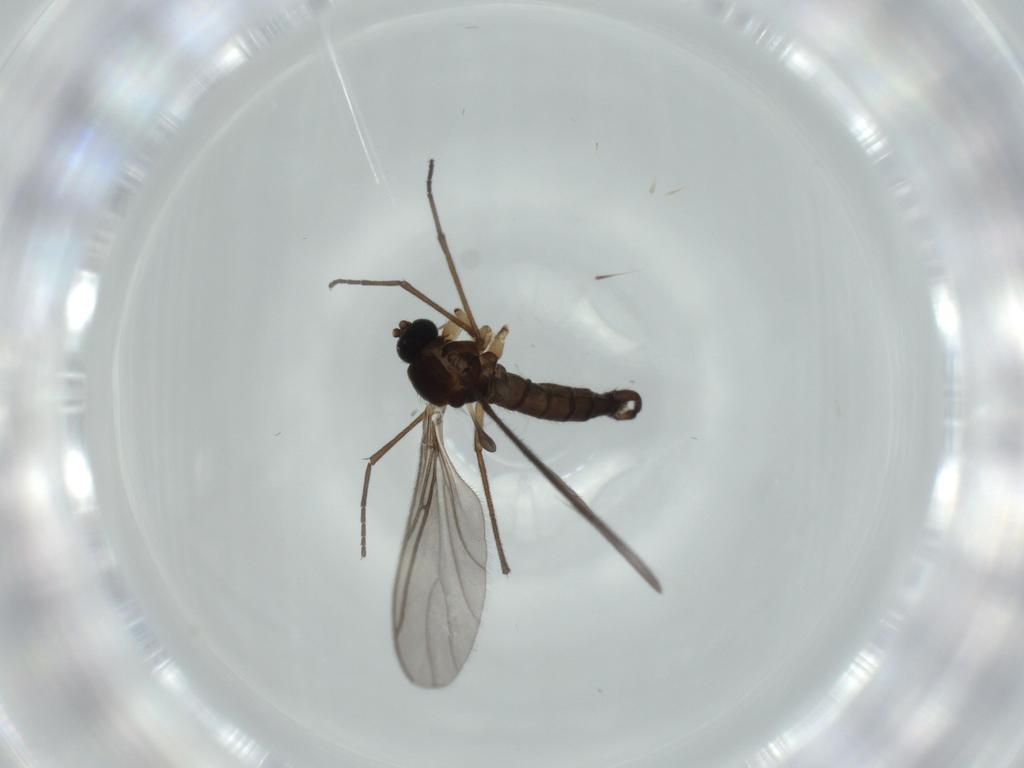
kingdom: Animalia
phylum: Arthropoda
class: Insecta
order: Diptera
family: Sciaridae
